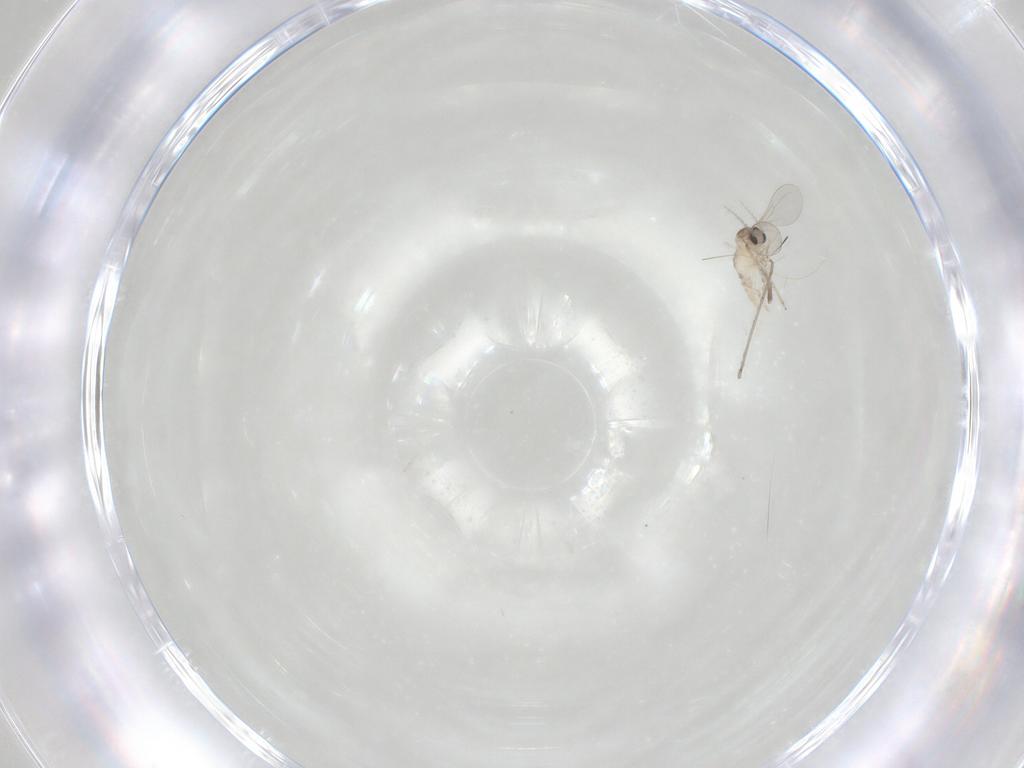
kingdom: Animalia
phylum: Arthropoda
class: Insecta
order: Diptera
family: Cecidomyiidae
